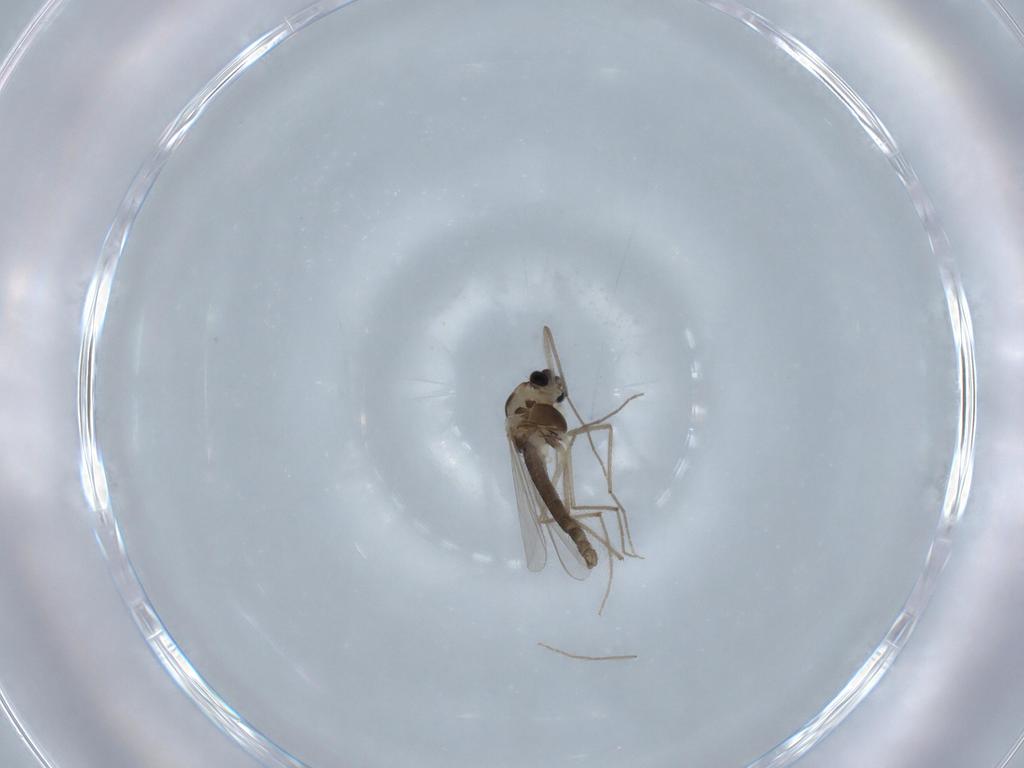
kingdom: Animalia
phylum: Arthropoda
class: Insecta
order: Diptera
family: Chironomidae
